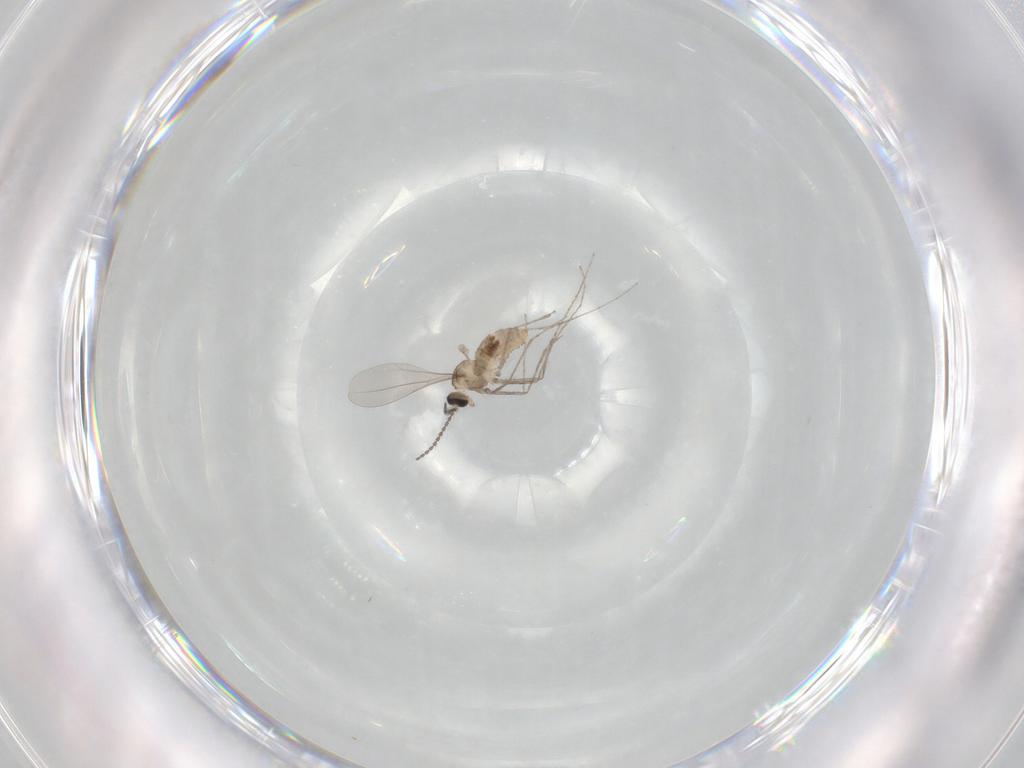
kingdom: Animalia
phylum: Arthropoda
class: Insecta
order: Diptera
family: Cecidomyiidae
